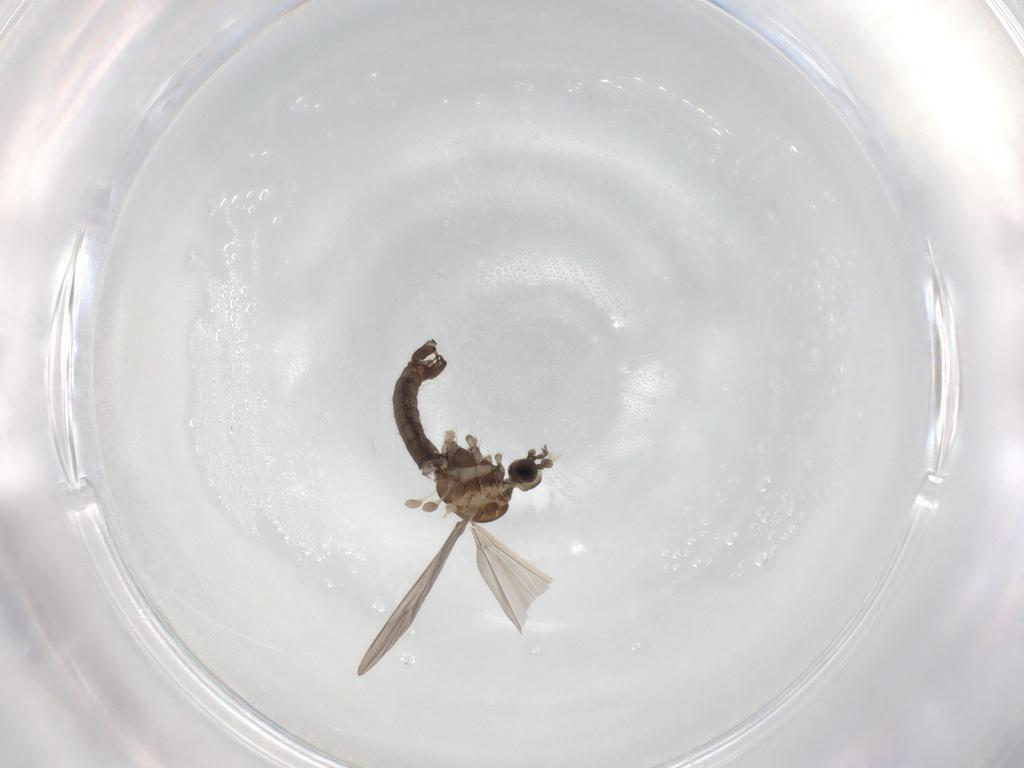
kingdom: Animalia
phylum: Arthropoda
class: Insecta
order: Diptera
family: Limoniidae
